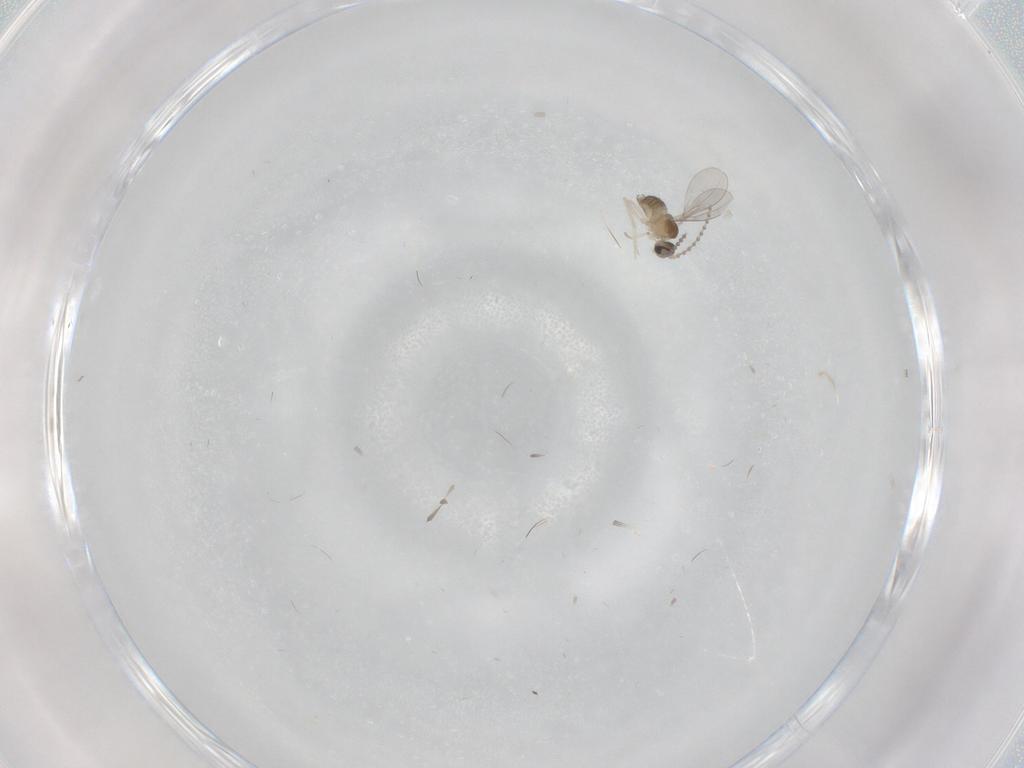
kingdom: Animalia
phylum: Arthropoda
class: Insecta
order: Diptera
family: Cecidomyiidae
